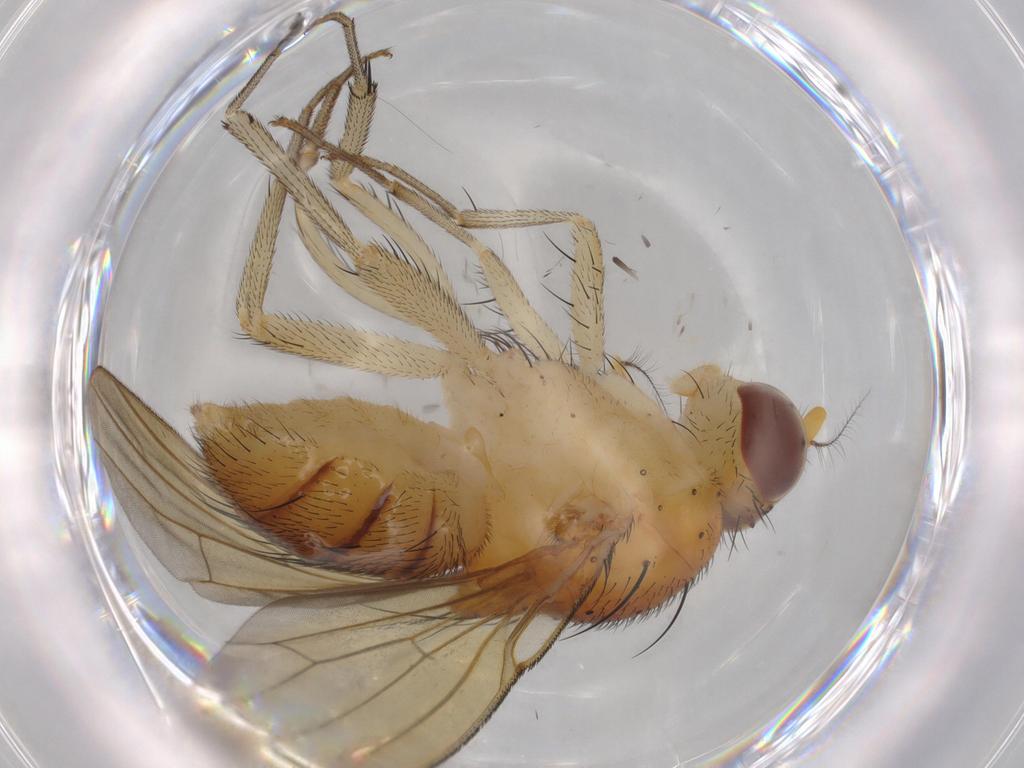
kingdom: Animalia
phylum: Arthropoda
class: Insecta
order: Diptera
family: Sciaridae
